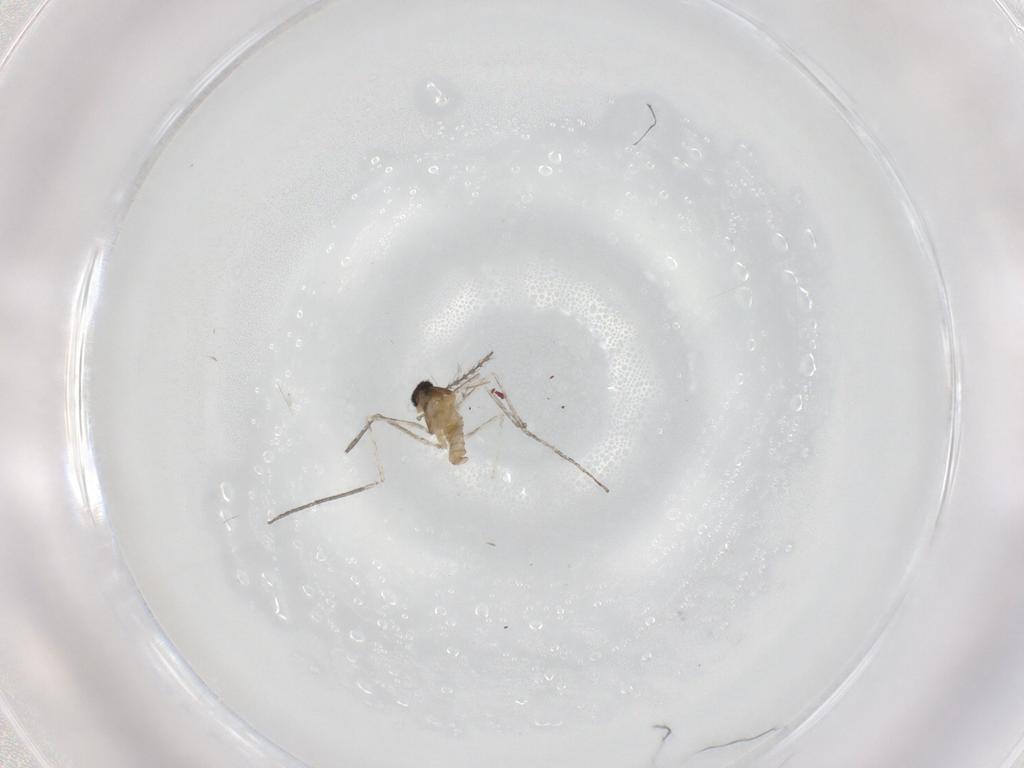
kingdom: Animalia
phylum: Arthropoda
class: Insecta
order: Diptera
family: Cecidomyiidae
